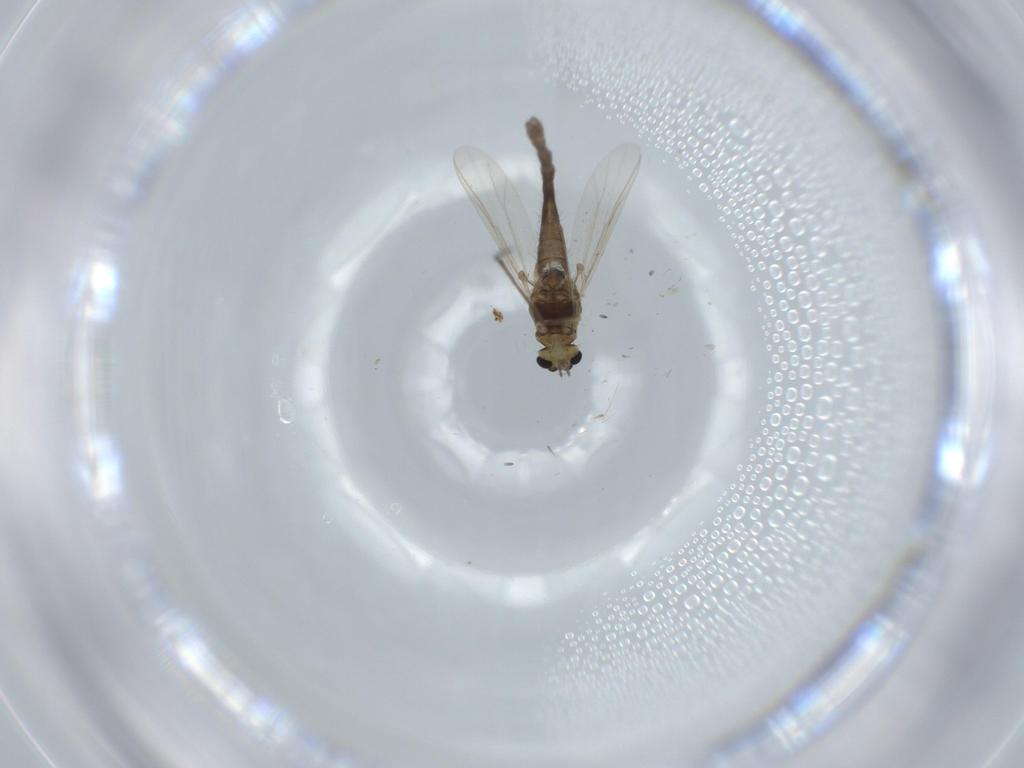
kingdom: Animalia
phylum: Arthropoda
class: Insecta
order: Diptera
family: Chironomidae
